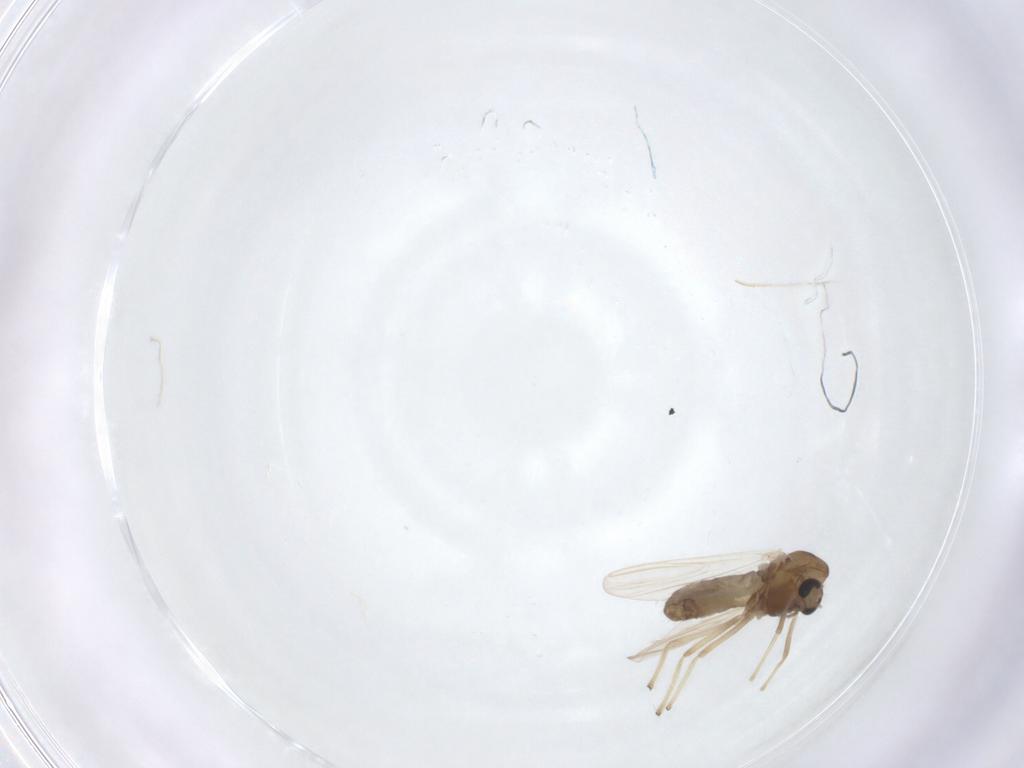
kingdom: Animalia
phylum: Arthropoda
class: Insecta
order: Diptera
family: Chironomidae
